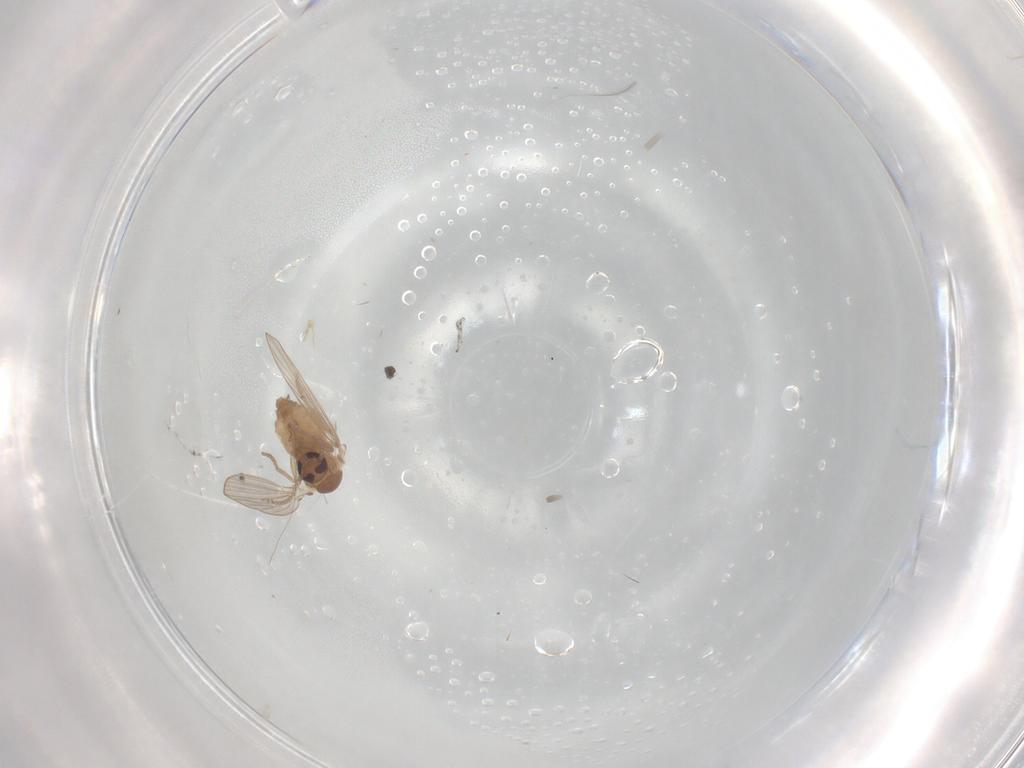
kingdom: Animalia
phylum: Arthropoda
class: Insecta
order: Diptera
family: Psychodidae
